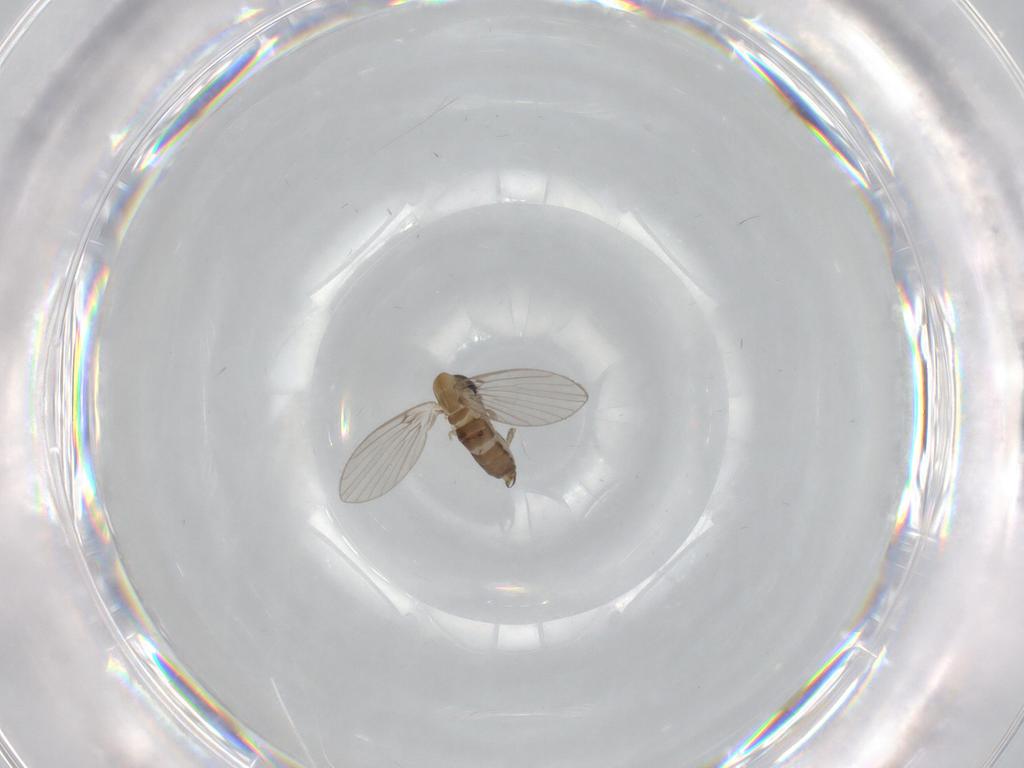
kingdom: Animalia
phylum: Arthropoda
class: Insecta
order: Diptera
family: Psychodidae
